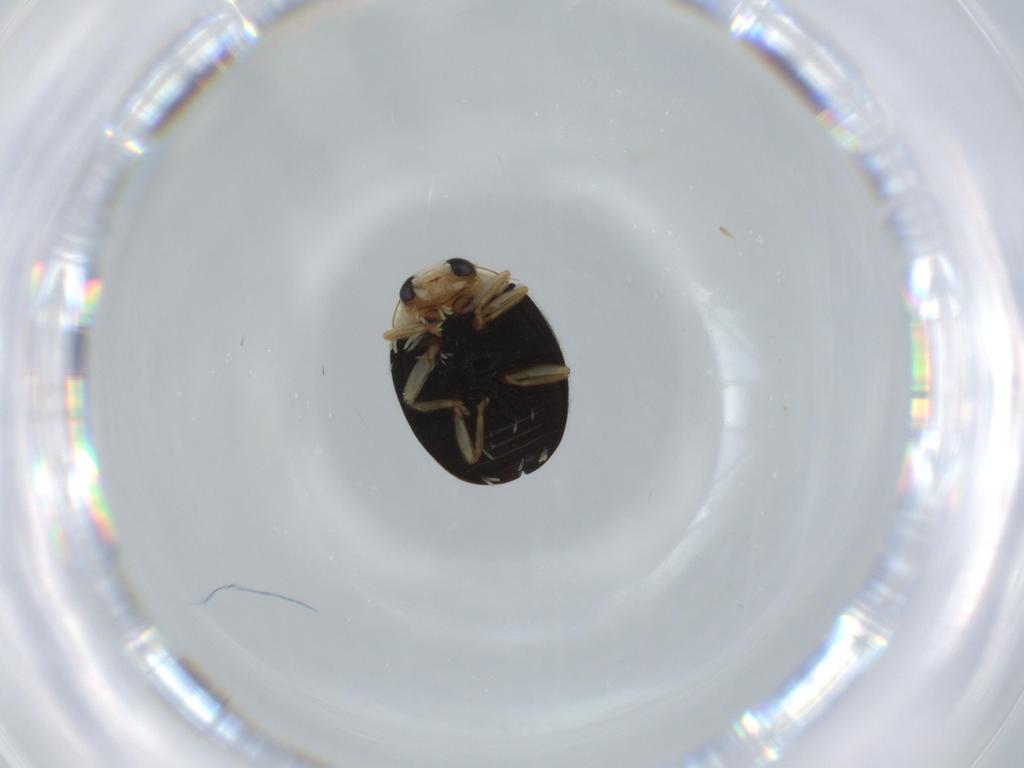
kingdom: Animalia
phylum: Arthropoda
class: Insecta
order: Coleoptera
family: Coccinellidae
